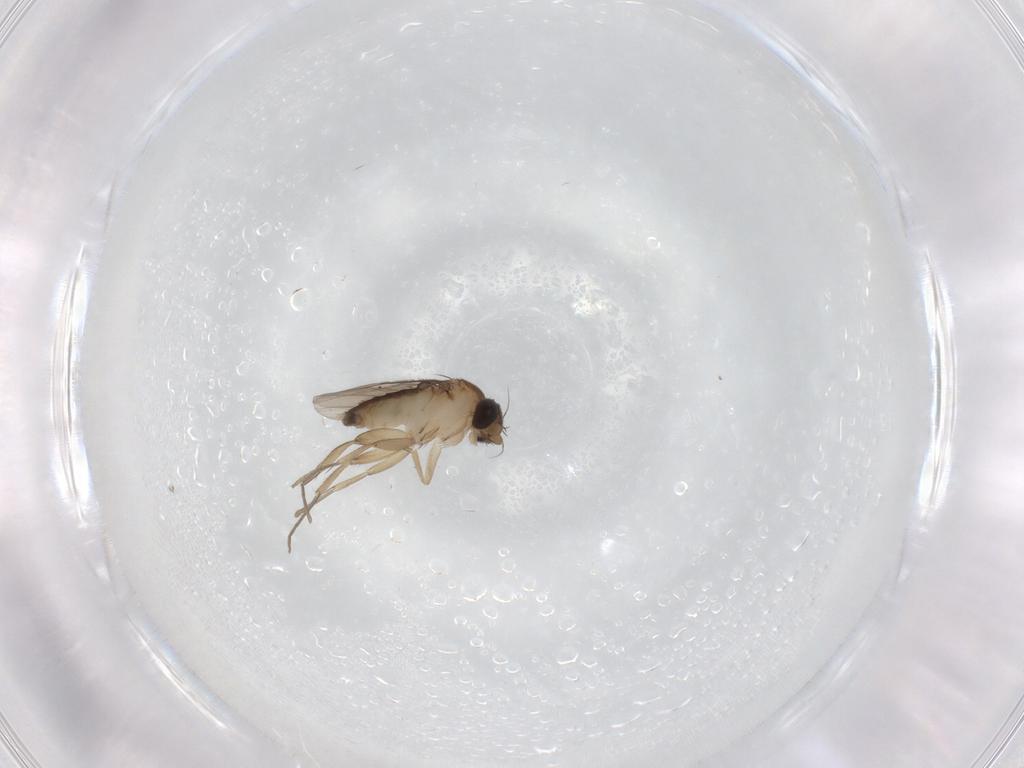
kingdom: Animalia
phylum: Arthropoda
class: Insecta
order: Diptera
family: Phoridae
